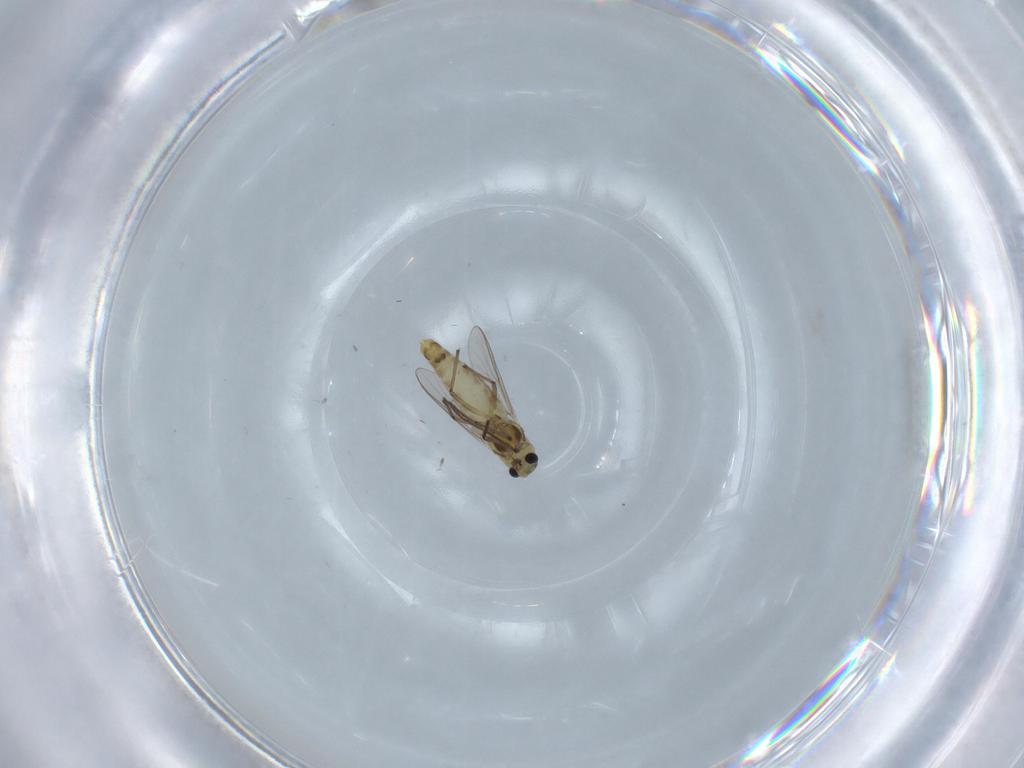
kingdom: Animalia
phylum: Arthropoda
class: Insecta
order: Diptera
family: Chironomidae
